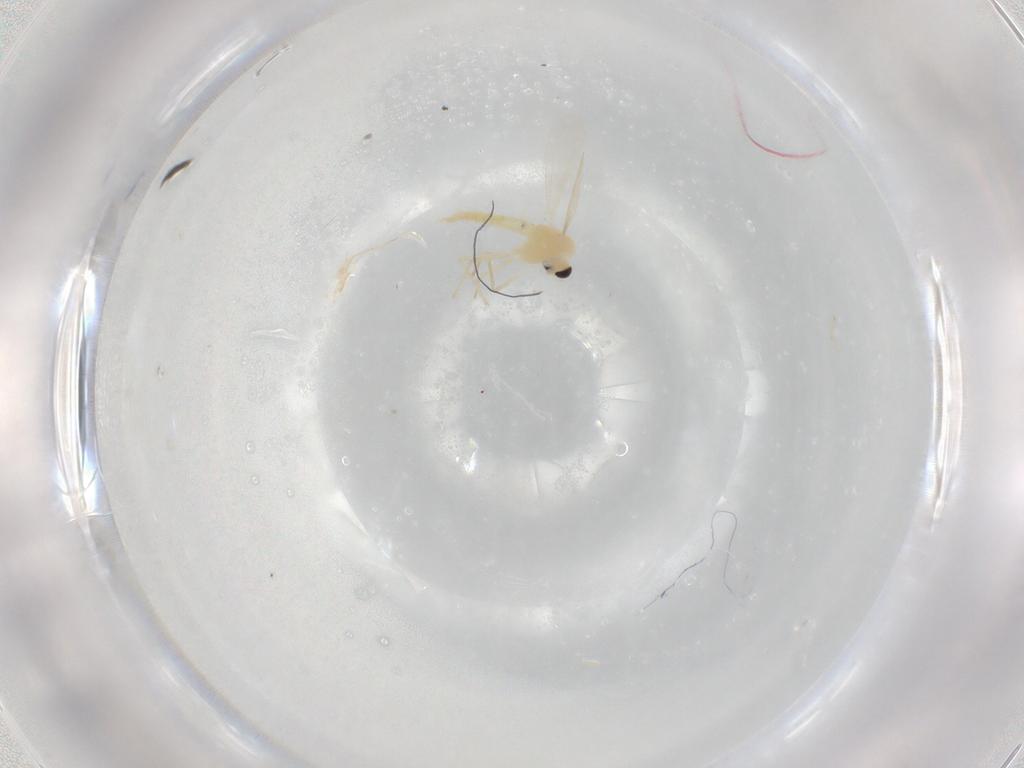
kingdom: Animalia
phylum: Arthropoda
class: Insecta
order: Diptera
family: Chironomidae
